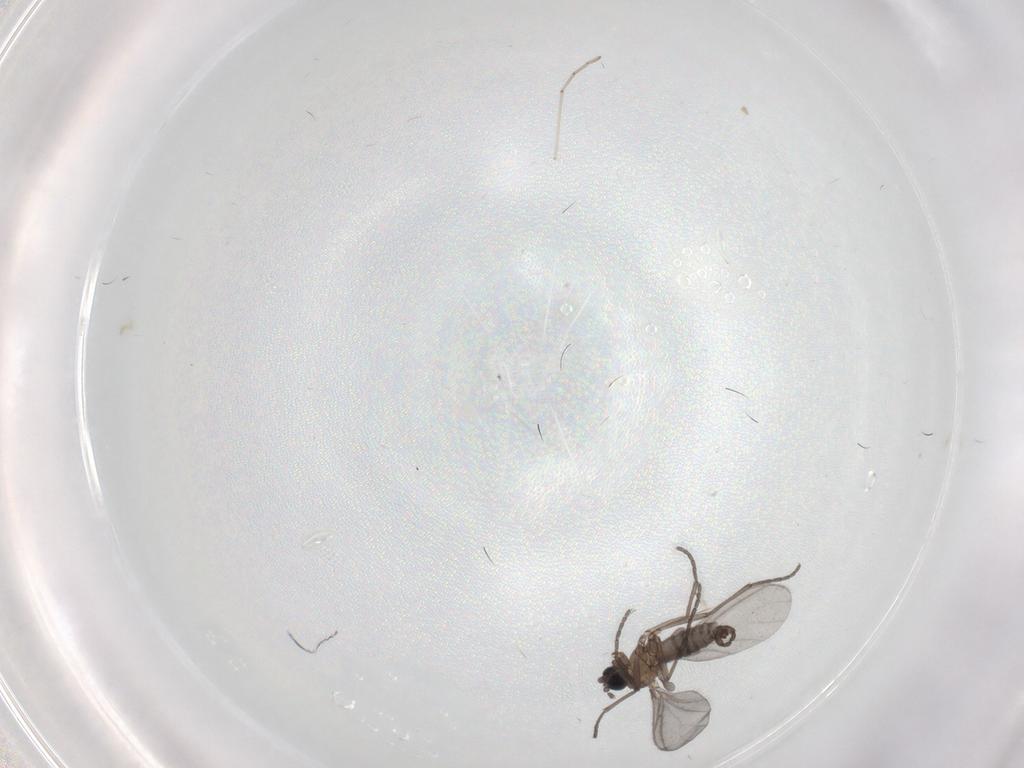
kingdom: Animalia
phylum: Arthropoda
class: Insecta
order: Diptera
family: Sciaridae
